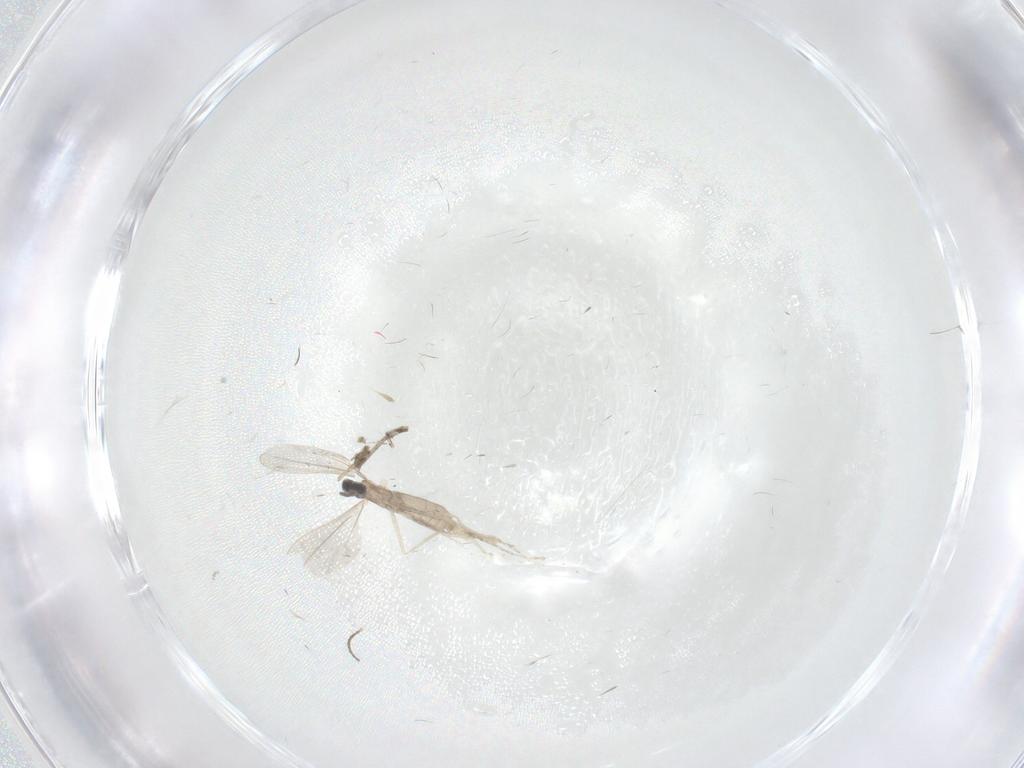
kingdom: Animalia
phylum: Arthropoda
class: Insecta
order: Diptera
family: Cecidomyiidae
